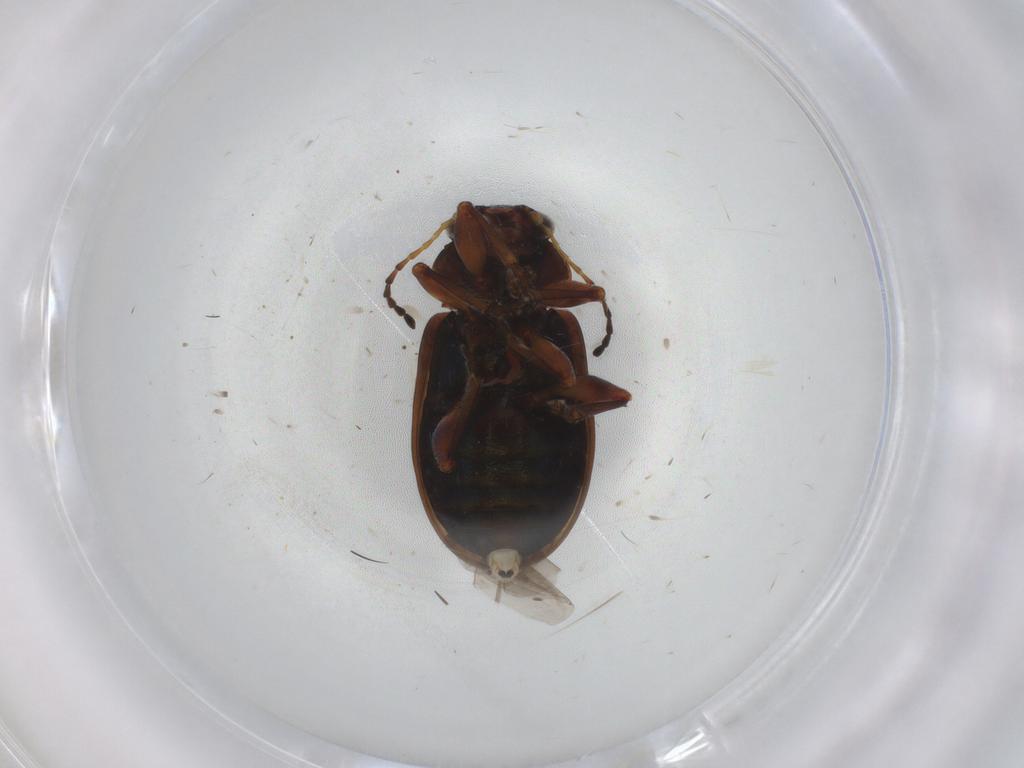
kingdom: Animalia
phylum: Arthropoda
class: Insecta
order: Coleoptera
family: Chrysomelidae
